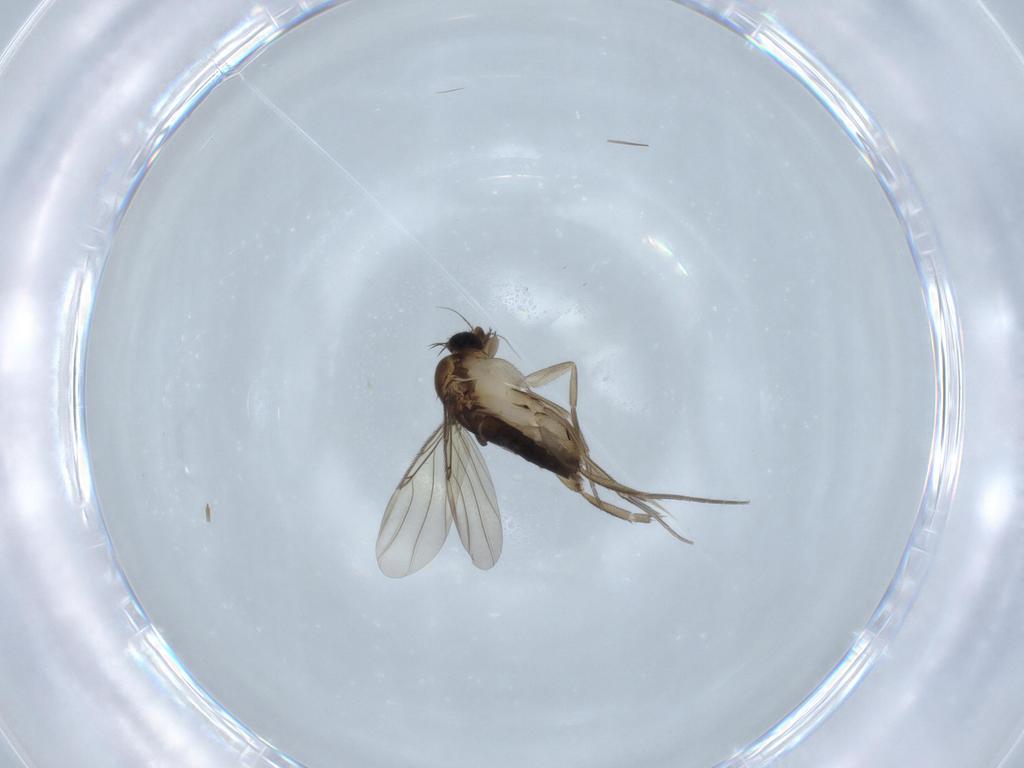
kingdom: Animalia
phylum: Arthropoda
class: Insecta
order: Diptera
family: Phoridae
